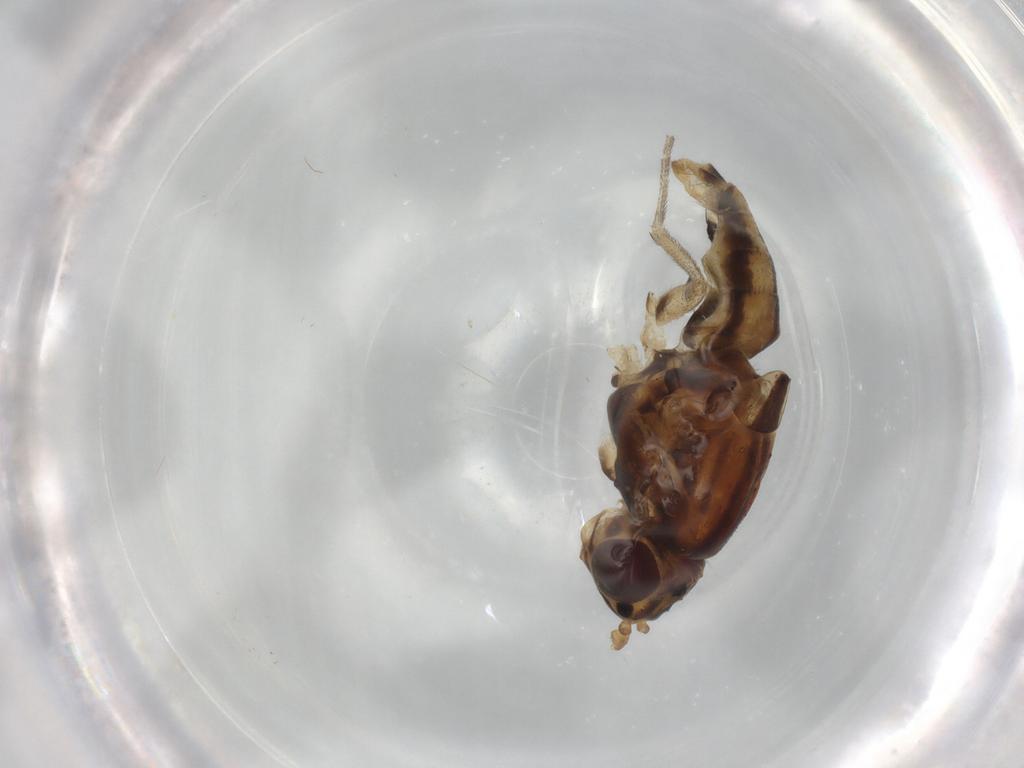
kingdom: Animalia
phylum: Arthropoda
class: Insecta
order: Diptera
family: Lauxaniidae
